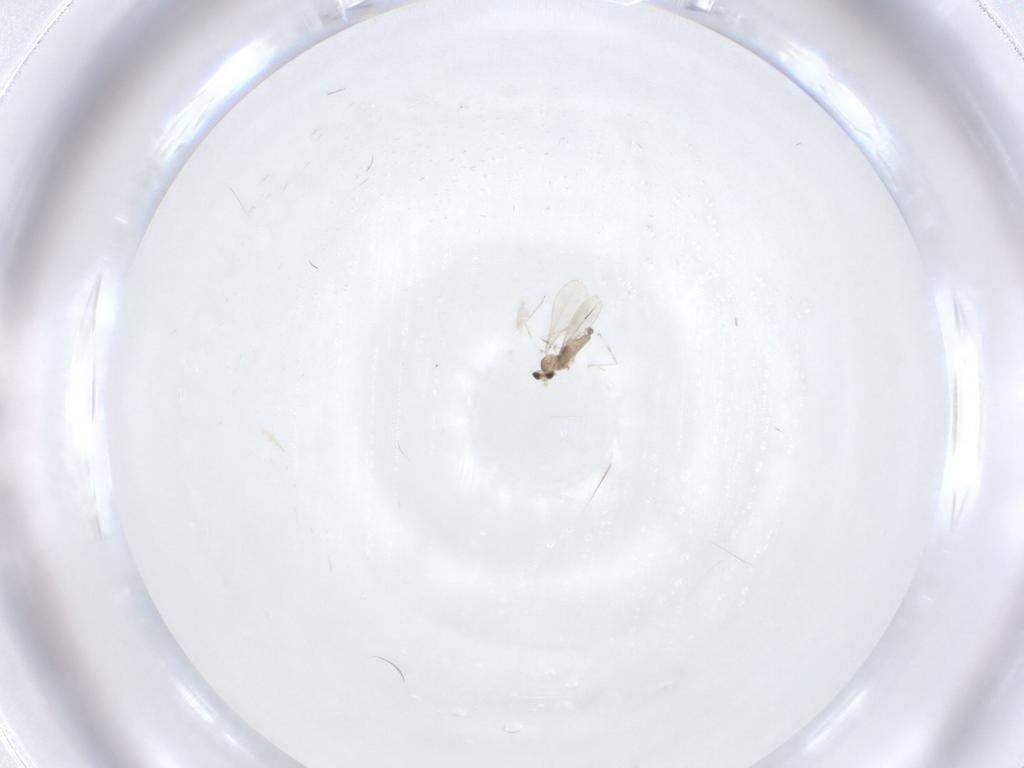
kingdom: Animalia
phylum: Arthropoda
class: Insecta
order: Diptera
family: Cecidomyiidae
